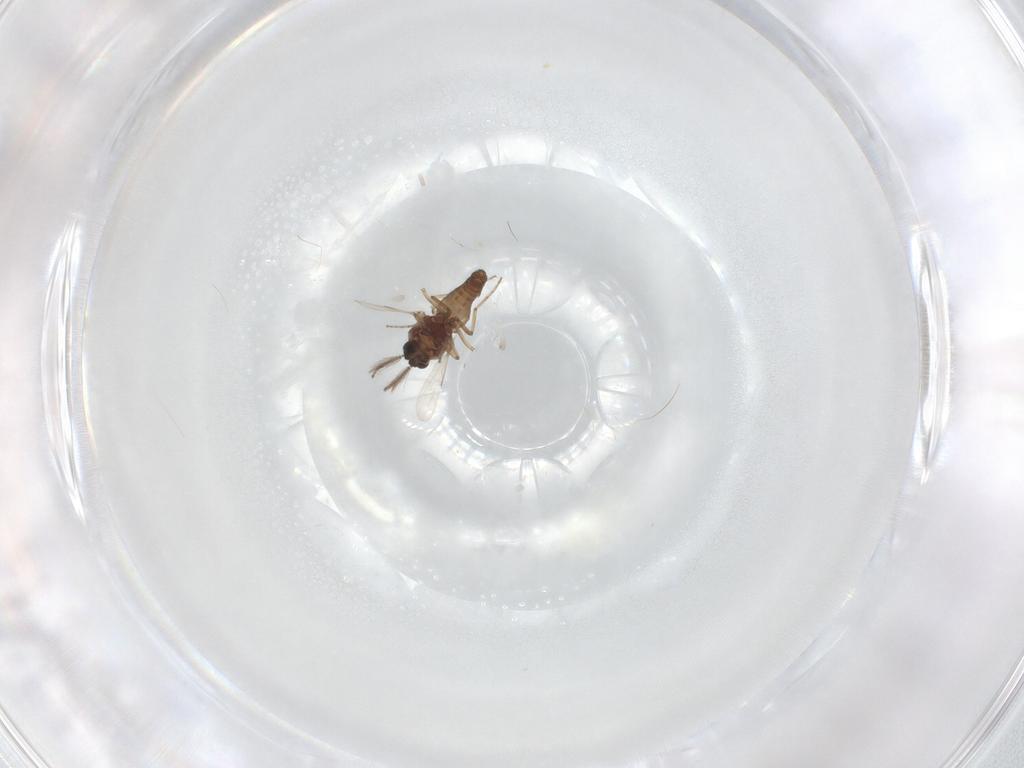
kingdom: Animalia
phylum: Arthropoda
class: Insecta
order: Diptera
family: Ceratopogonidae
